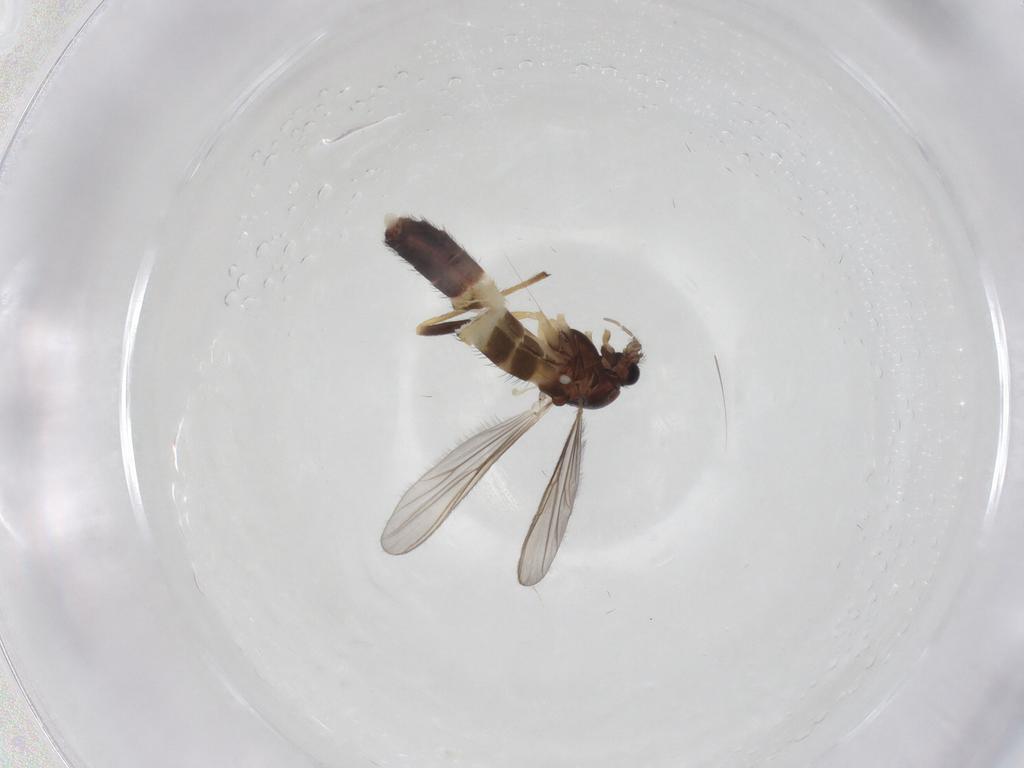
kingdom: Animalia
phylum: Arthropoda
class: Insecta
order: Diptera
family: Chironomidae
